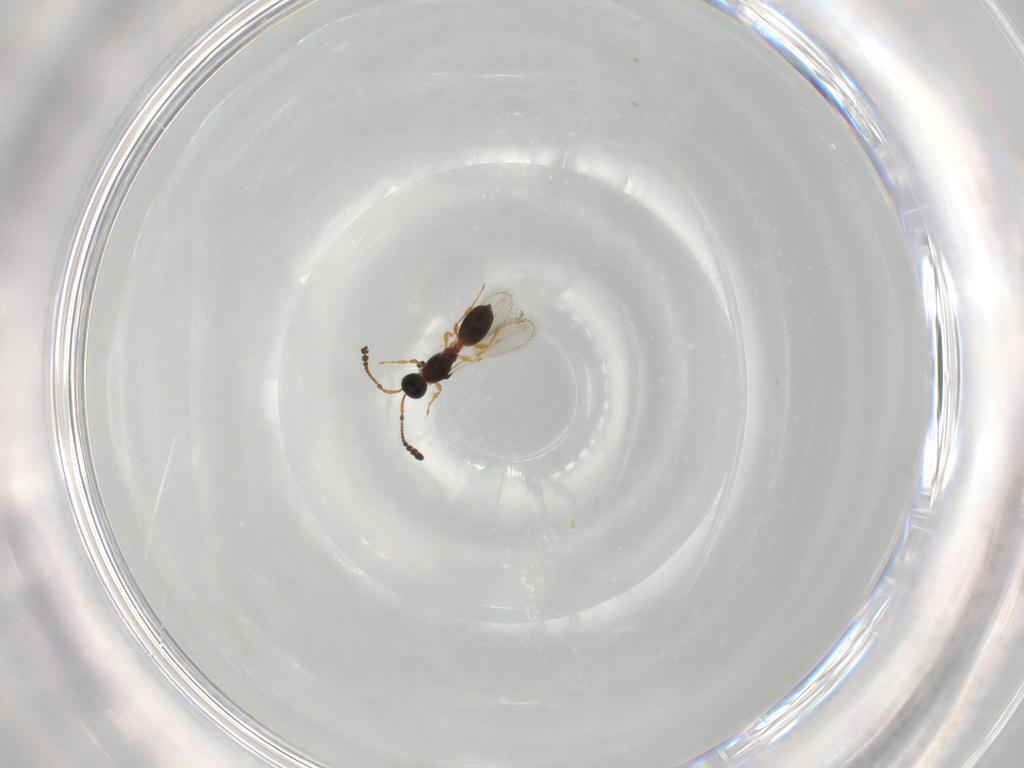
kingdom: Animalia
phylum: Arthropoda
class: Insecta
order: Hymenoptera
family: Diapriidae
